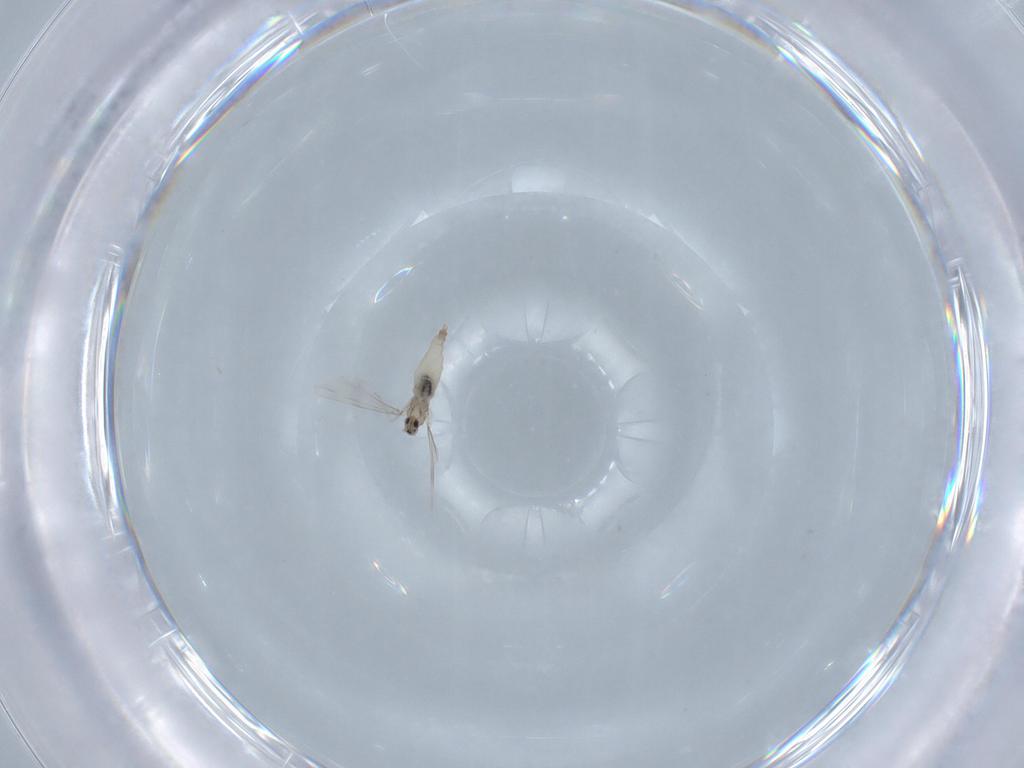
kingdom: Animalia
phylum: Arthropoda
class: Insecta
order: Diptera
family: Cecidomyiidae
